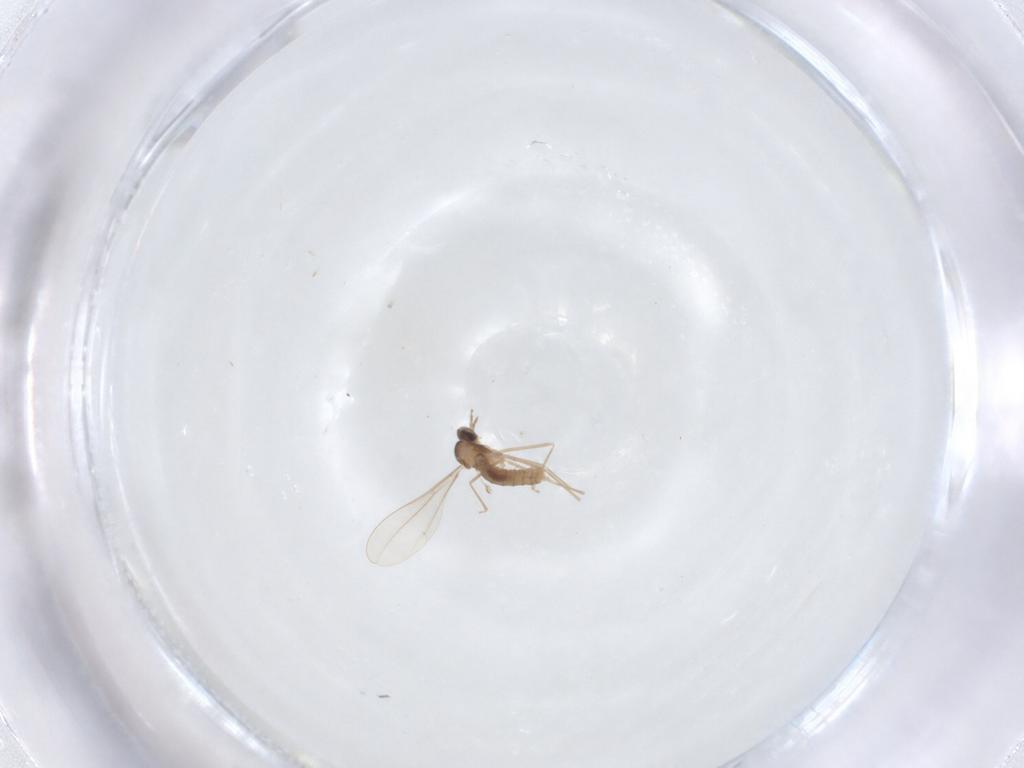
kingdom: Animalia
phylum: Arthropoda
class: Insecta
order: Diptera
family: Cecidomyiidae
